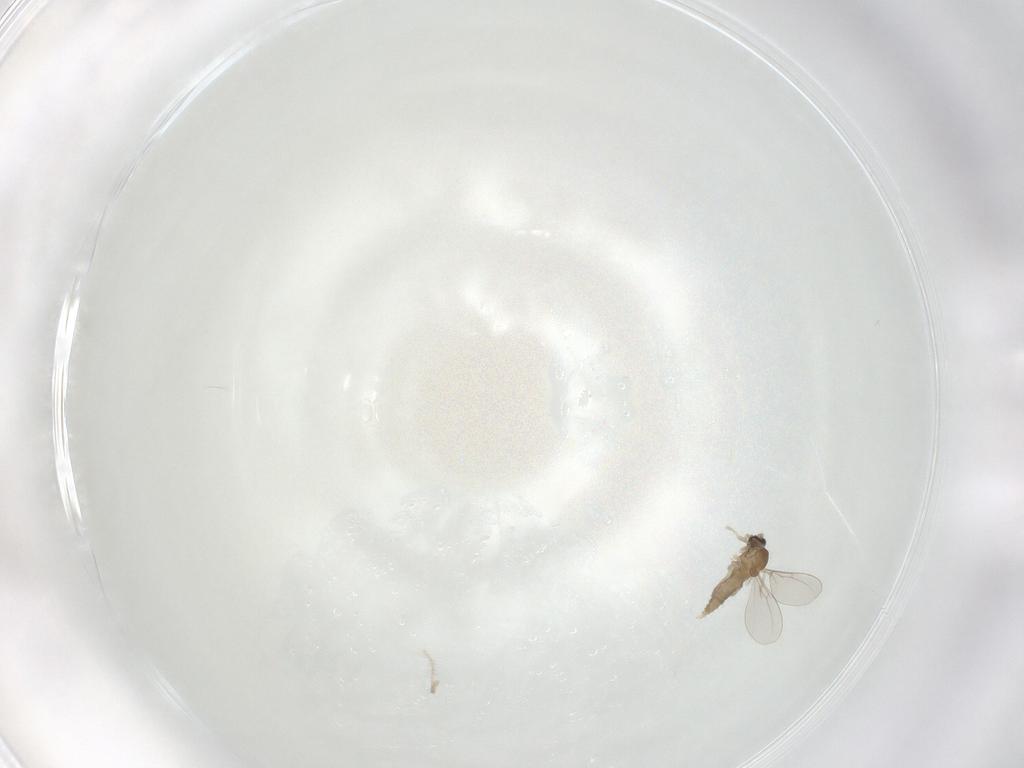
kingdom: Animalia
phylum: Arthropoda
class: Insecta
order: Diptera
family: Cecidomyiidae
